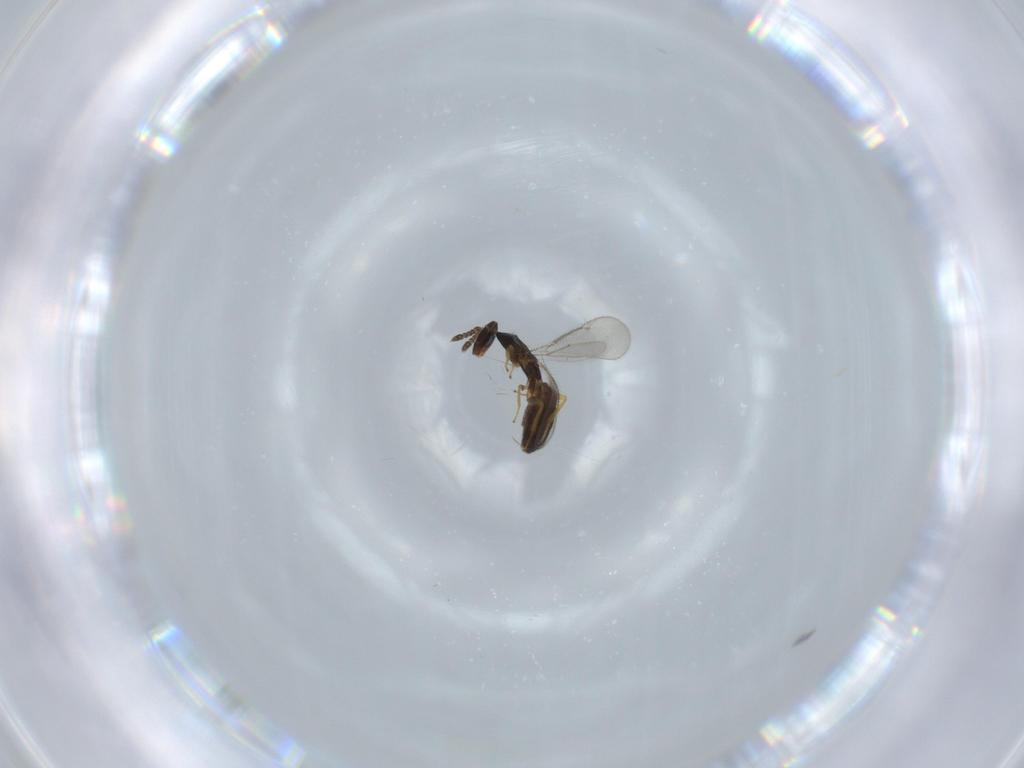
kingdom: Animalia
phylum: Arthropoda
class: Insecta
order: Hymenoptera
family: Eulophidae
